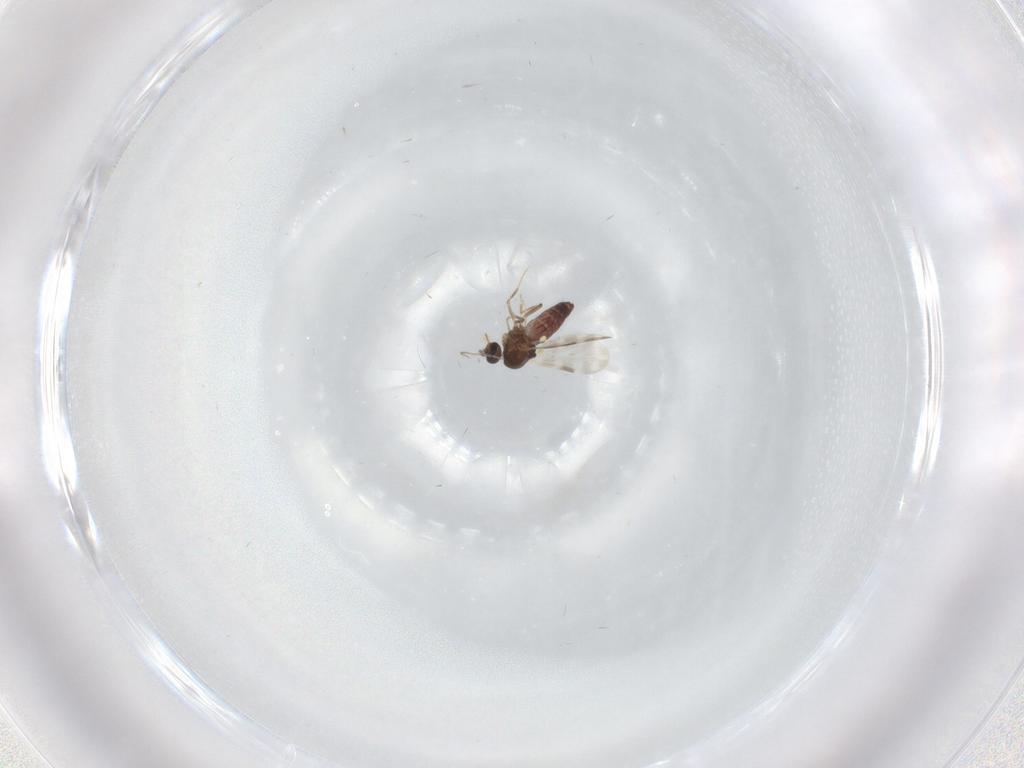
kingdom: Animalia
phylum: Arthropoda
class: Insecta
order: Diptera
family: Ceratopogonidae
